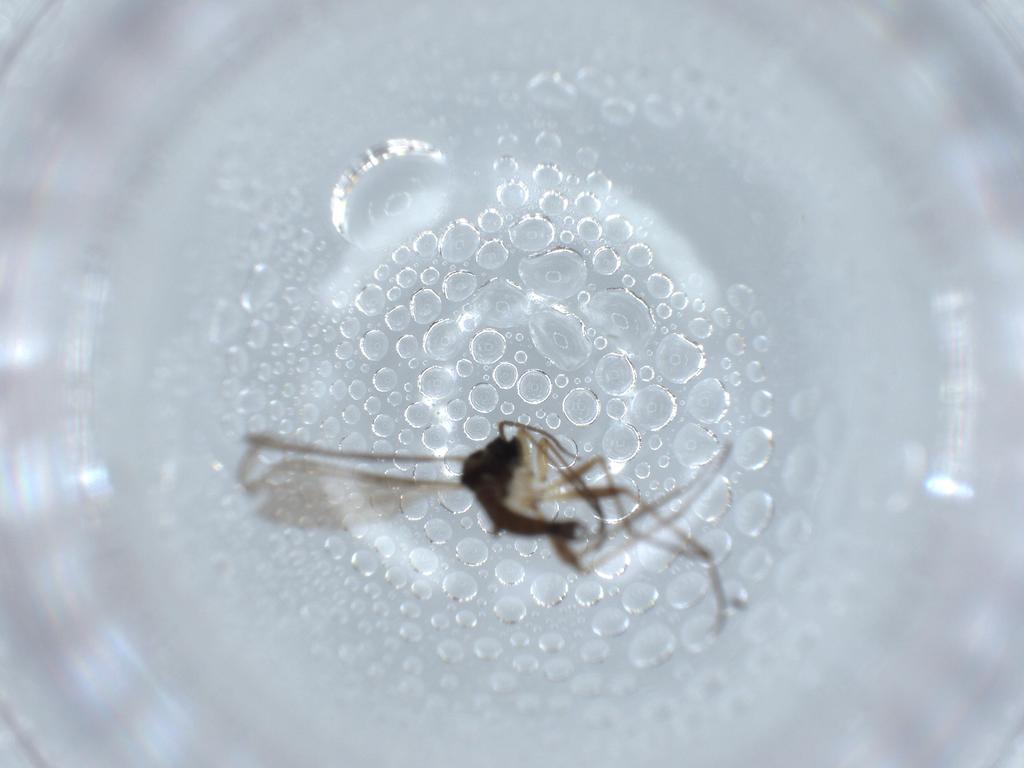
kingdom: Animalia
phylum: Arthropoda
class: Insecta
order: Diptera
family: Sciaridae
